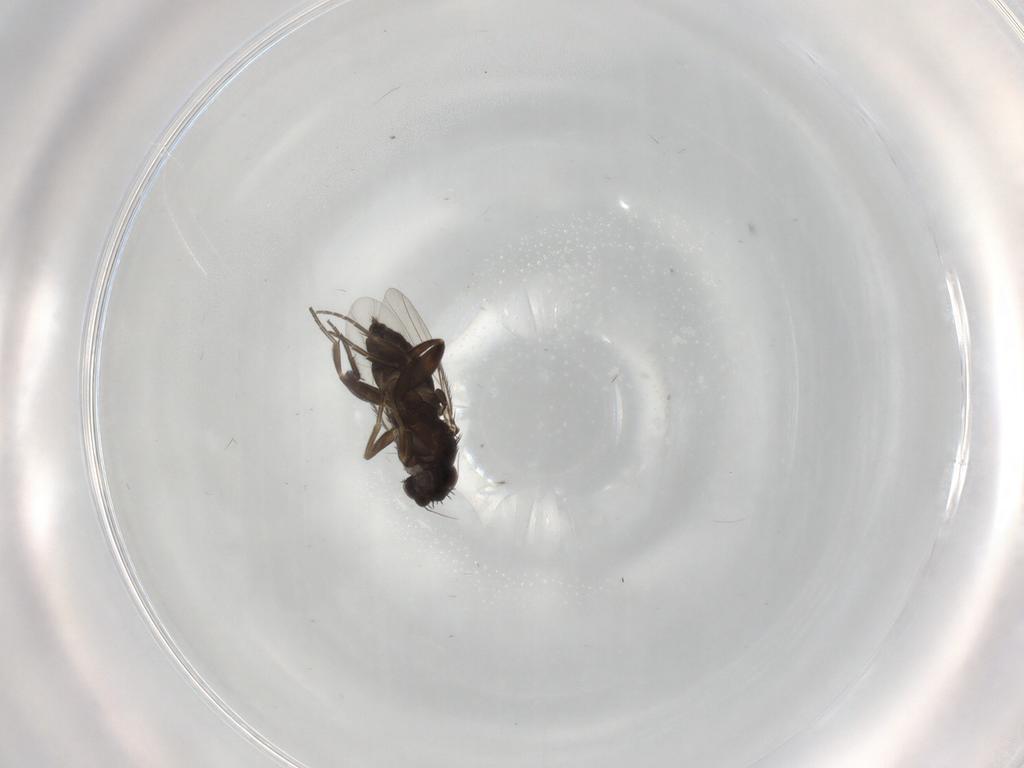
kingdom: Animalia
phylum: Arthropoda
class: Insecta
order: Diptera
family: Phoridae
